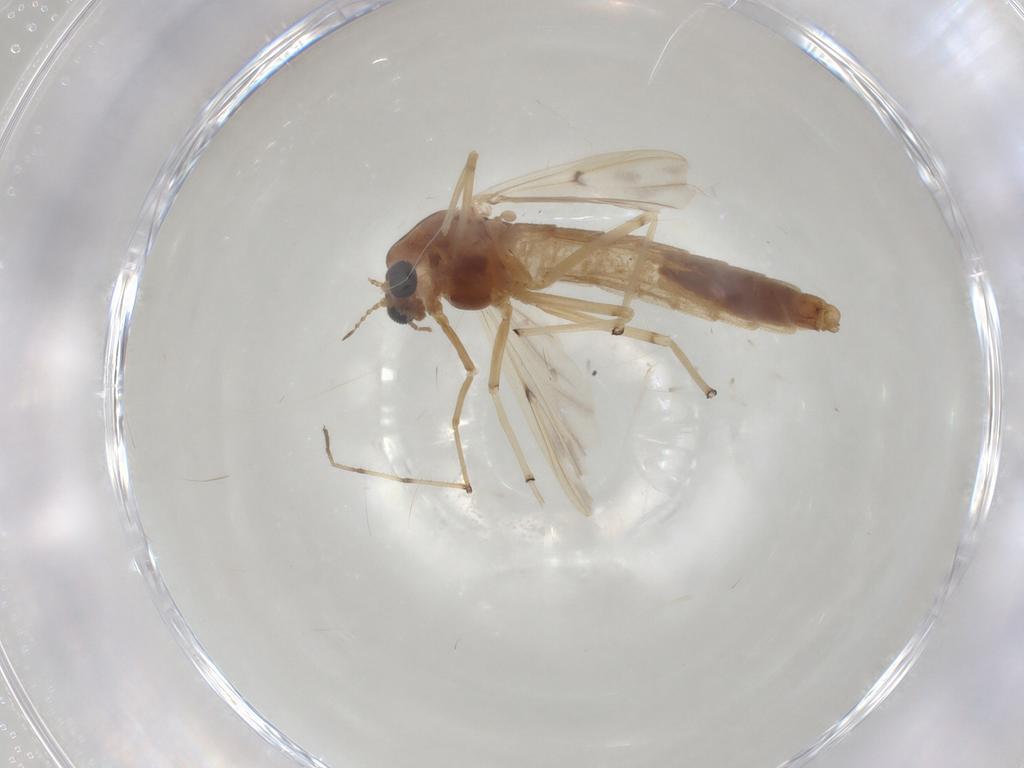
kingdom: Animalia
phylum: Arthropoda
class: Insecta
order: Diptera
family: Chironomidae
